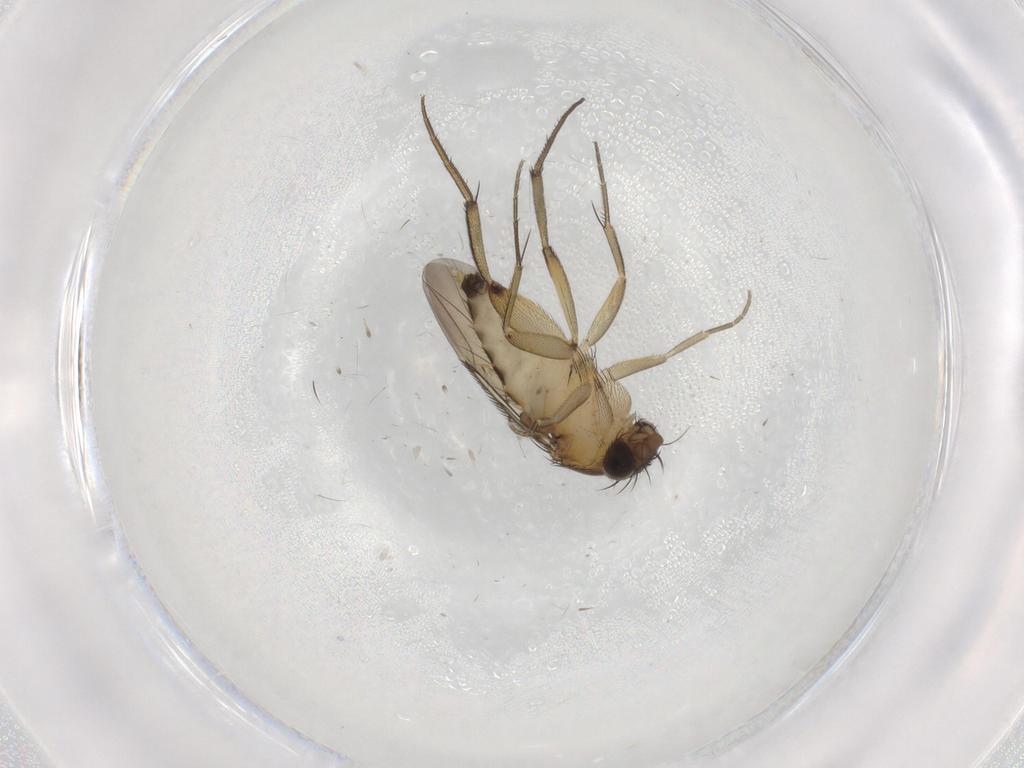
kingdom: Animalia
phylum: Arthropoda
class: Insecta
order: Diptera
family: Phoridae
